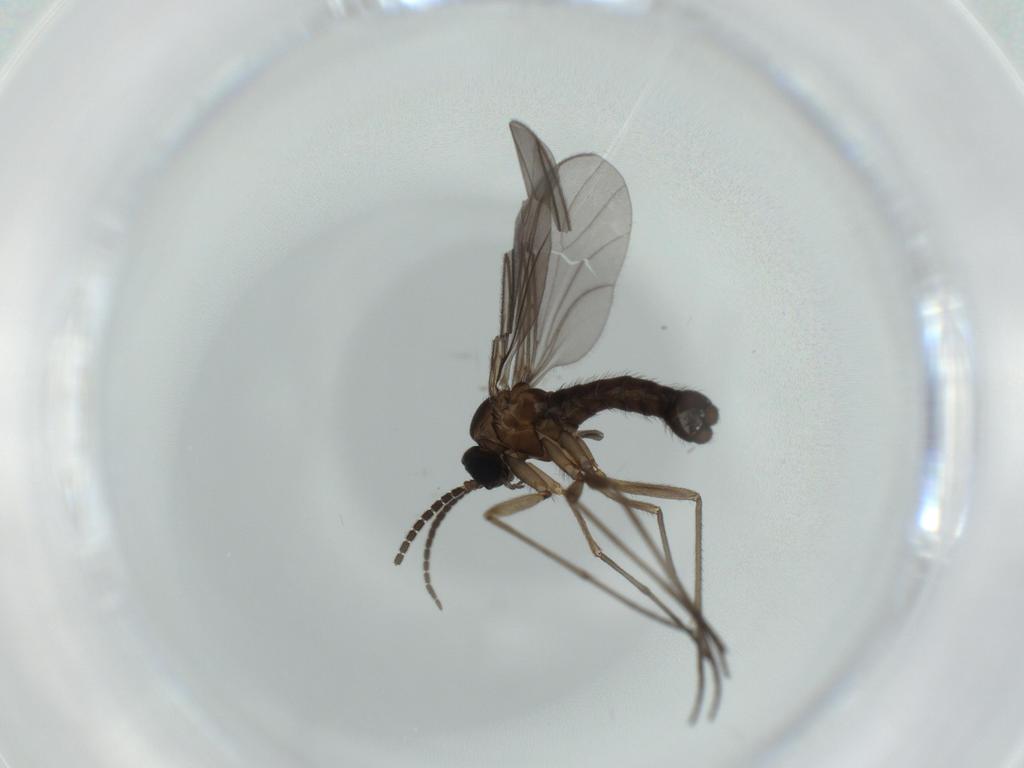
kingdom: Animalia
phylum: Arthropoda
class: Insecta
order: Diptera
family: Sciaridae
